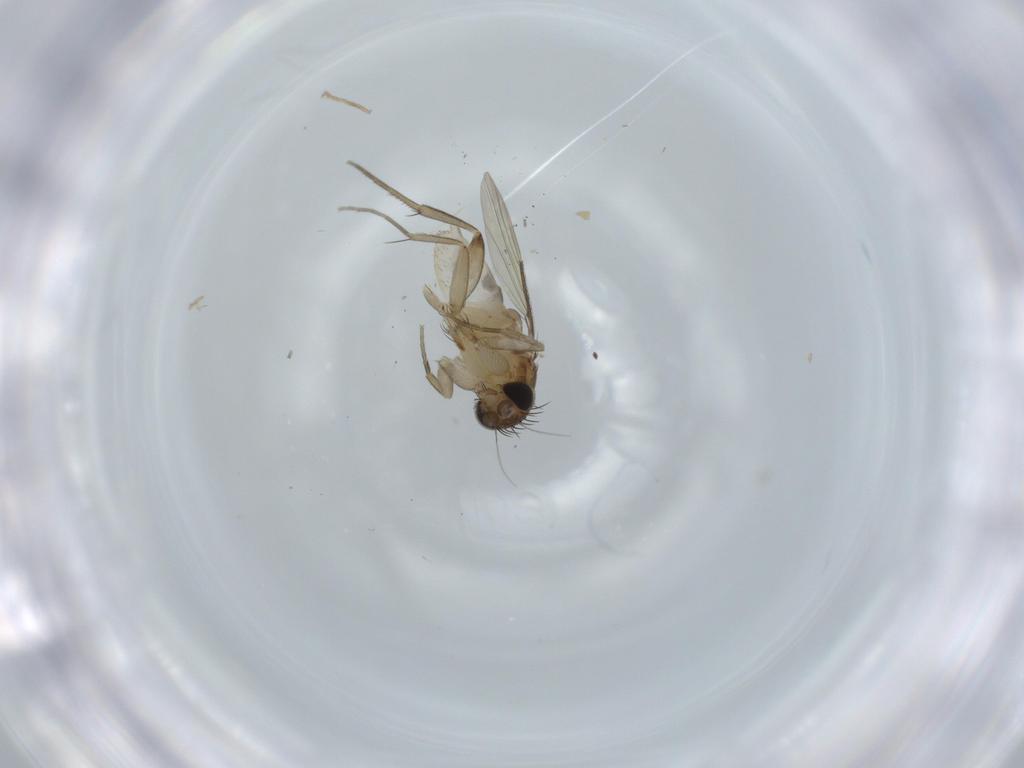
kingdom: Animalia
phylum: Arthropoda
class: Insecta
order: Diptera
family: Phoridae
